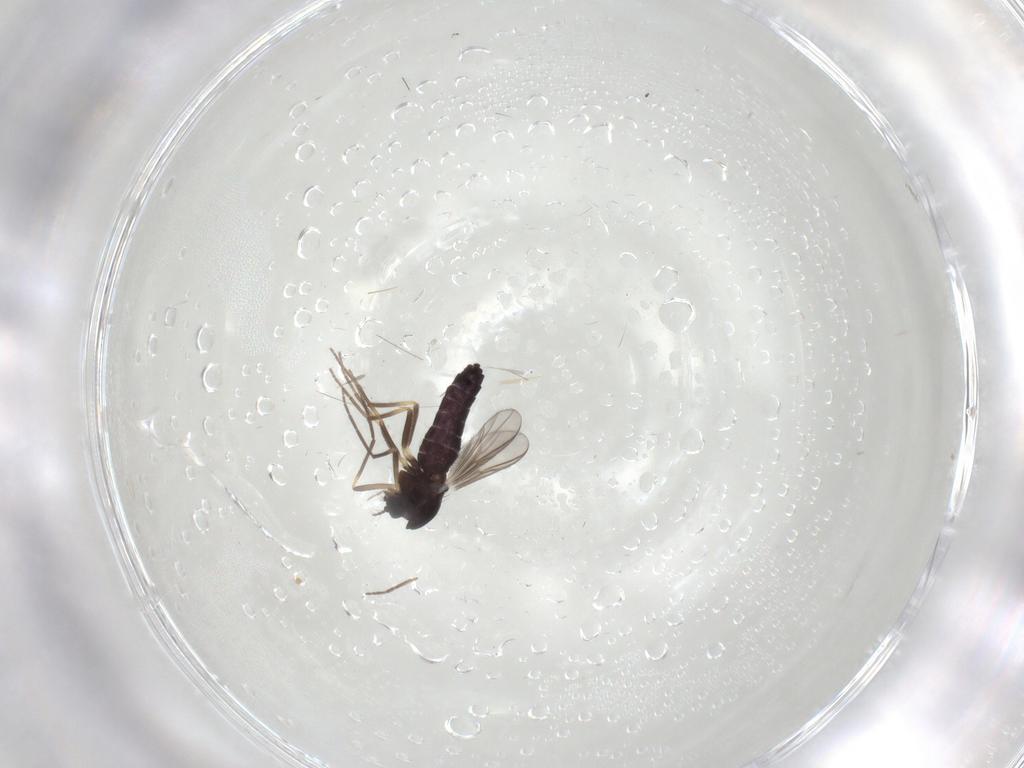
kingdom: Animalia
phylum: Arthropoda
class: Insecta
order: Diptera
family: Chironomidae
